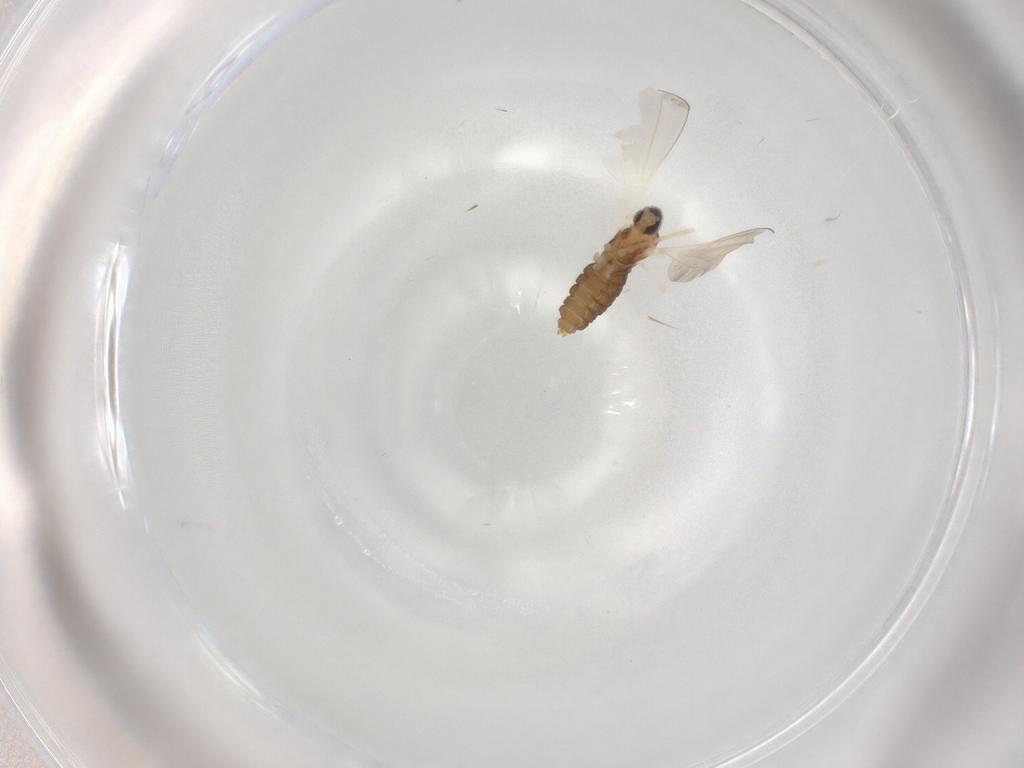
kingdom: Animalia
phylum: Arthropoda
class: Insecta
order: Diptera
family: Cecidomyiidae
